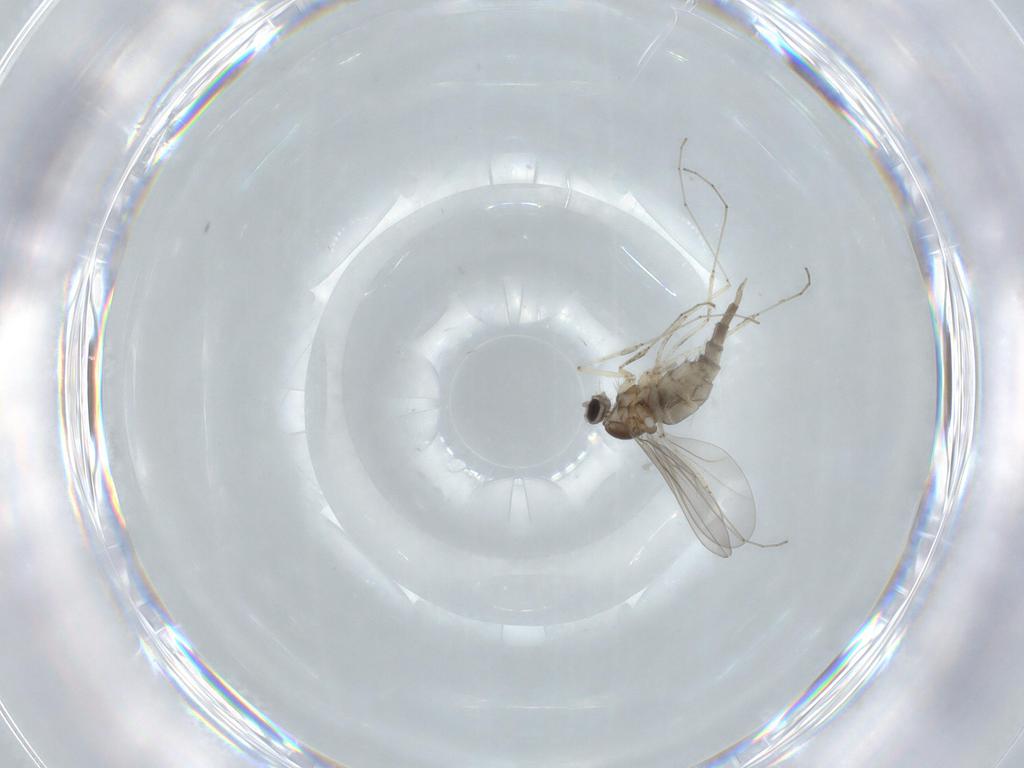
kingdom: Animalia
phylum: Arthropoda
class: Insecta
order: Diptera
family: Cecidomyiidae
